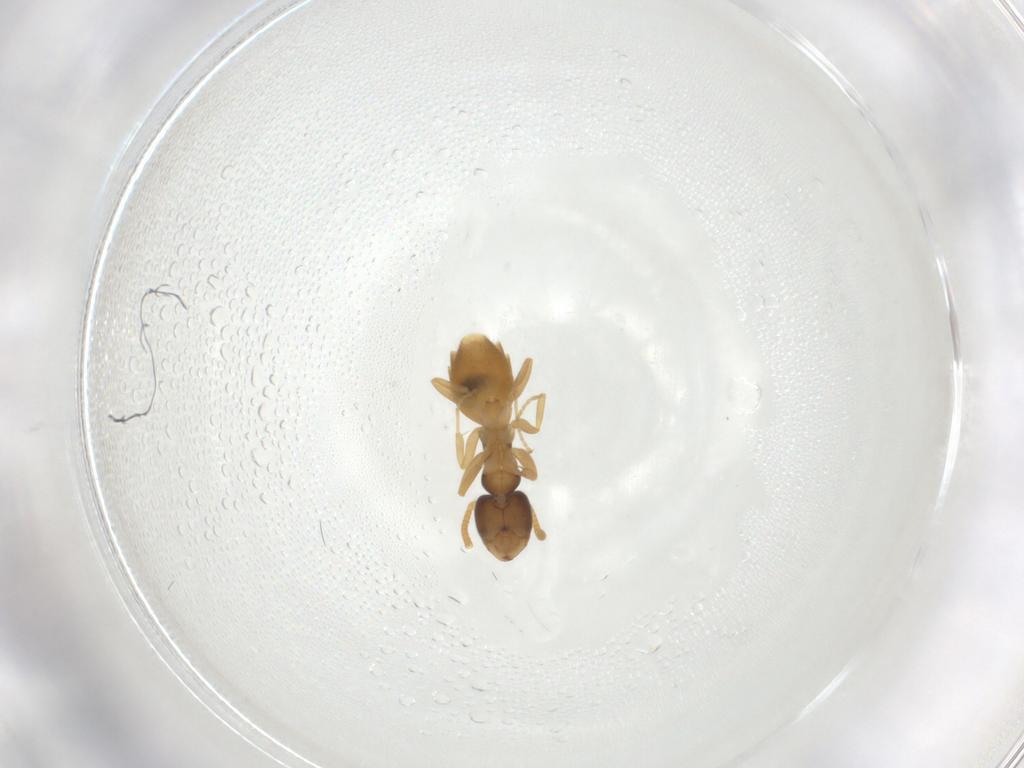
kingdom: Animalia
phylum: Arthropoda
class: Insecta
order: Hymenoptera
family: Formicidae
